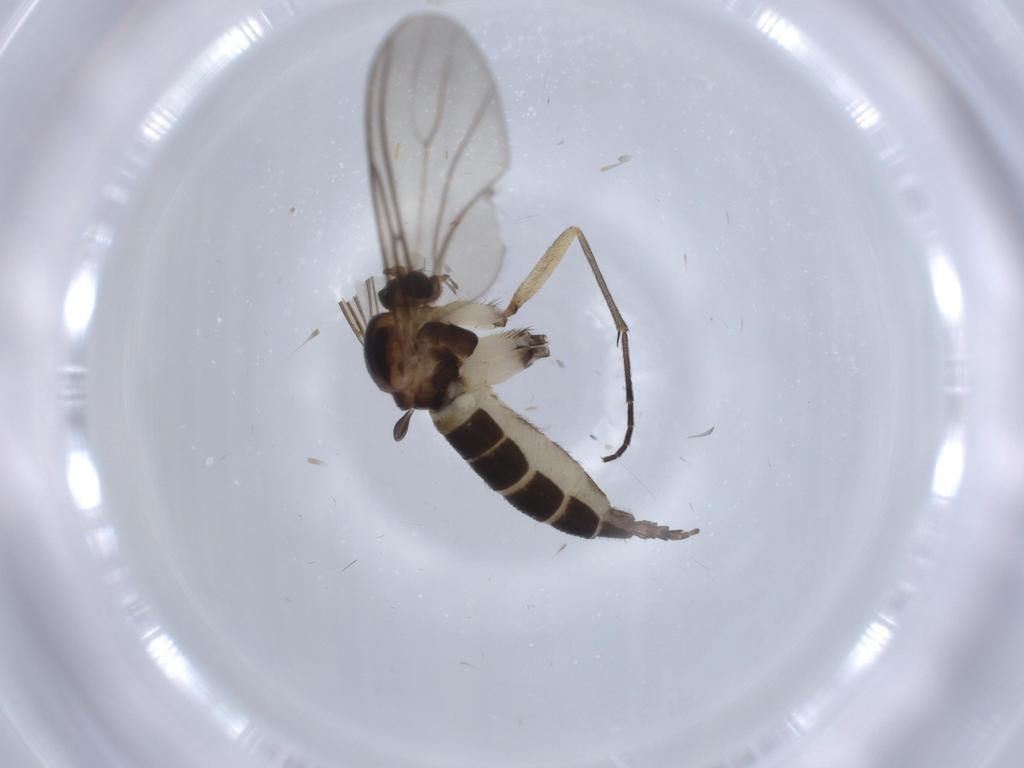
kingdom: Animalia
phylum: Arthropoda
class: Insecta
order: Diptera
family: Sciaridae
